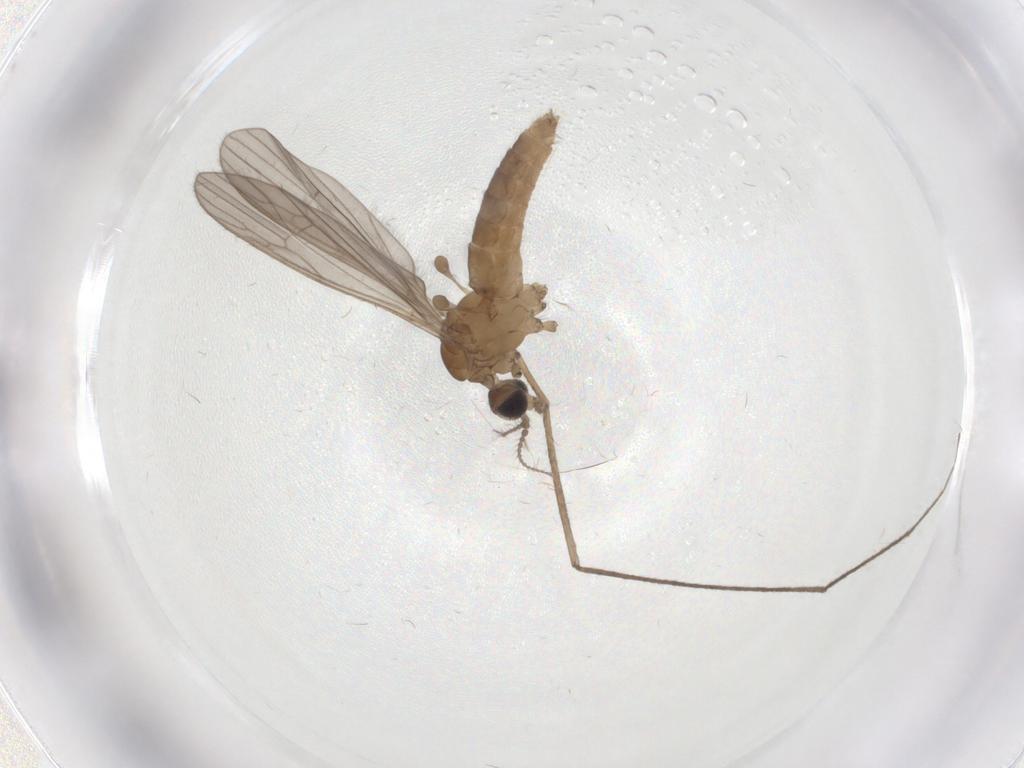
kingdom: Animalia
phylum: Arthropoda
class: Insecta
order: Diptera
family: Limoniidae
